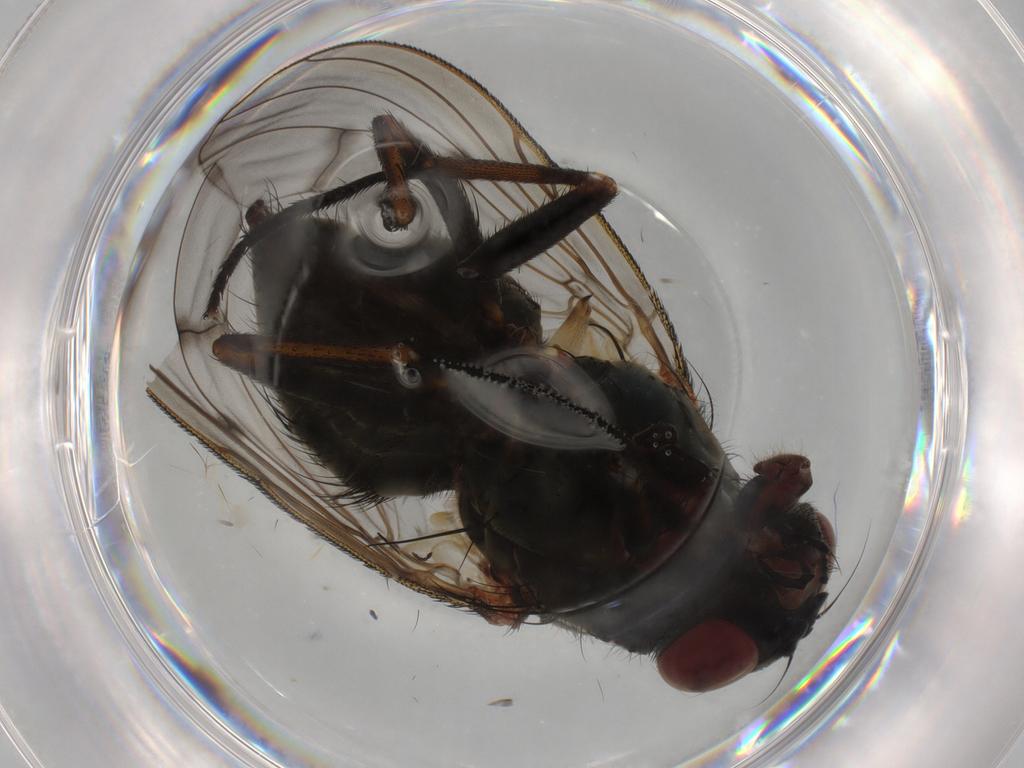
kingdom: Animalia
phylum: Arthropoda
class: Insecta
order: Diptera
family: Muscidae
